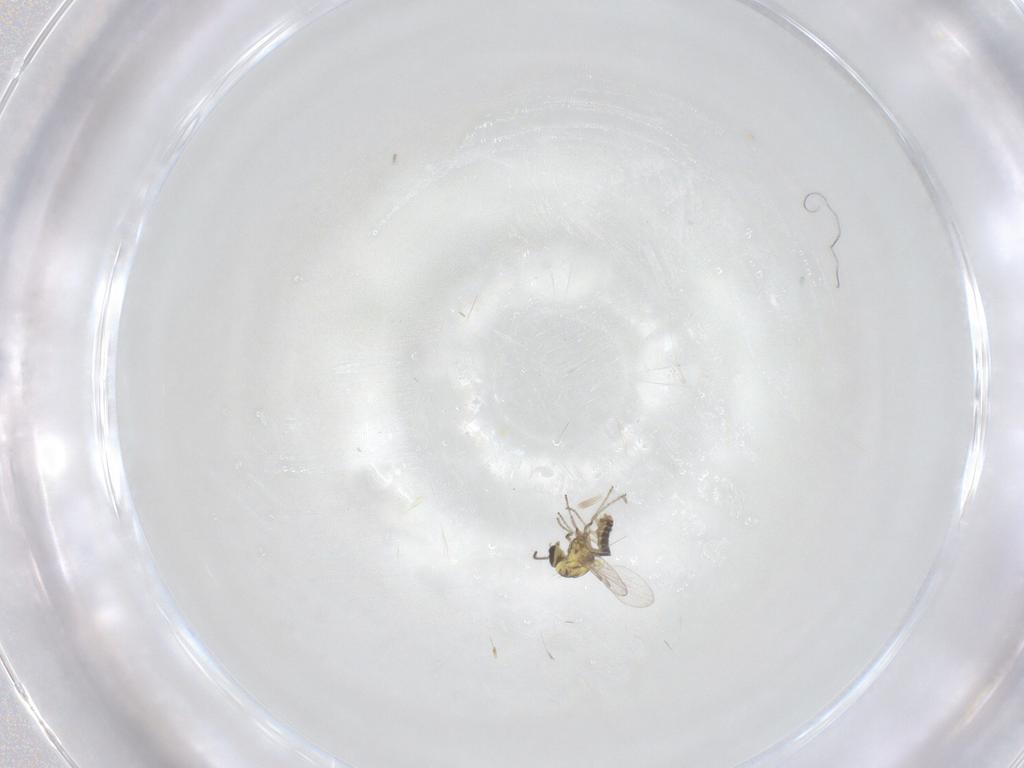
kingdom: Animalia
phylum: Arthropoda
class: Insecta
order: Diptera
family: Ceratopogonidae
